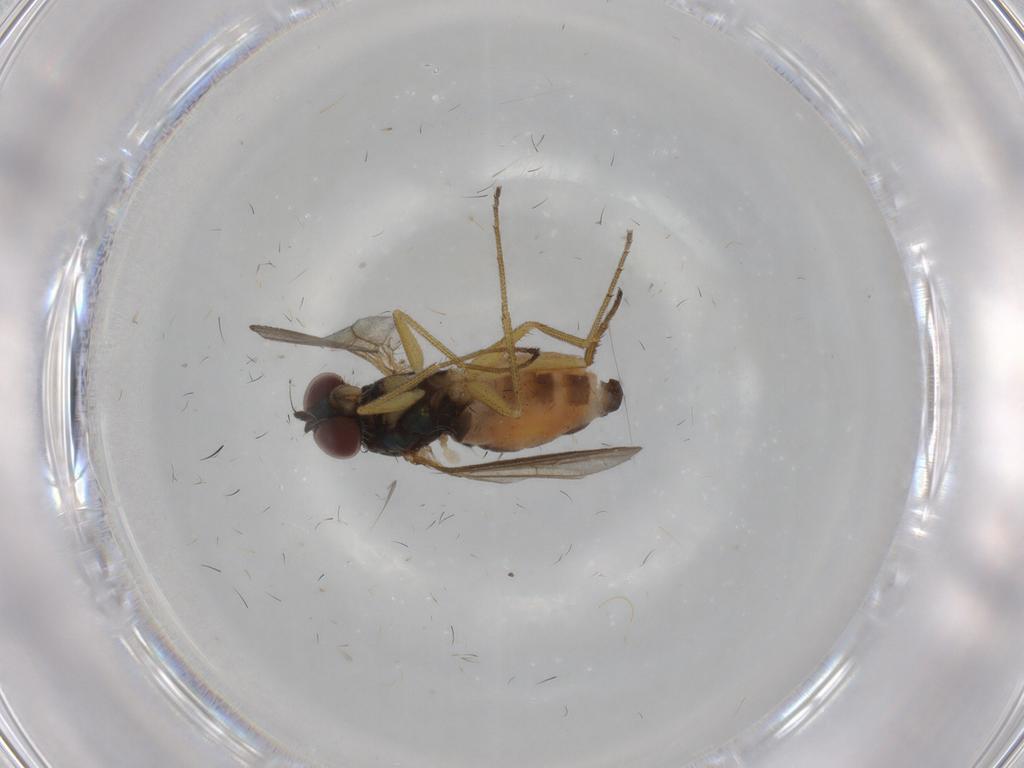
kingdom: Animalia
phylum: Arthropoda
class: Insecta
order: Diptera
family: Dolichopodidae
